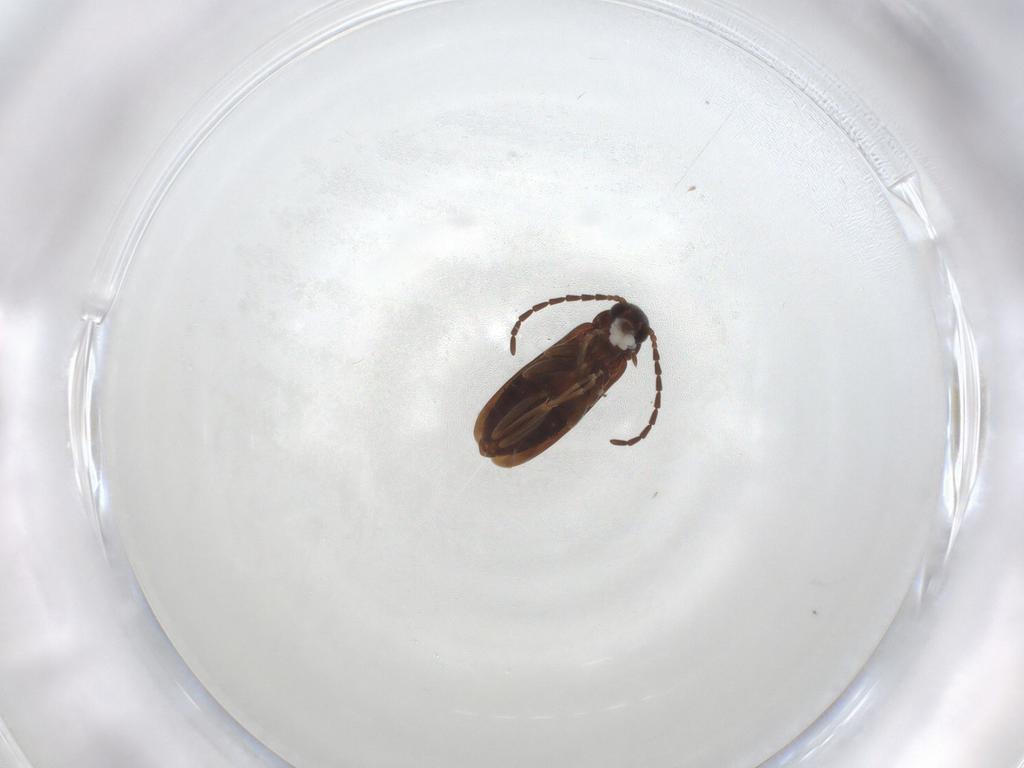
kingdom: Animalia
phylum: Arthropoda
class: Insecta
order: Coleoptera
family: Scraptiidae
